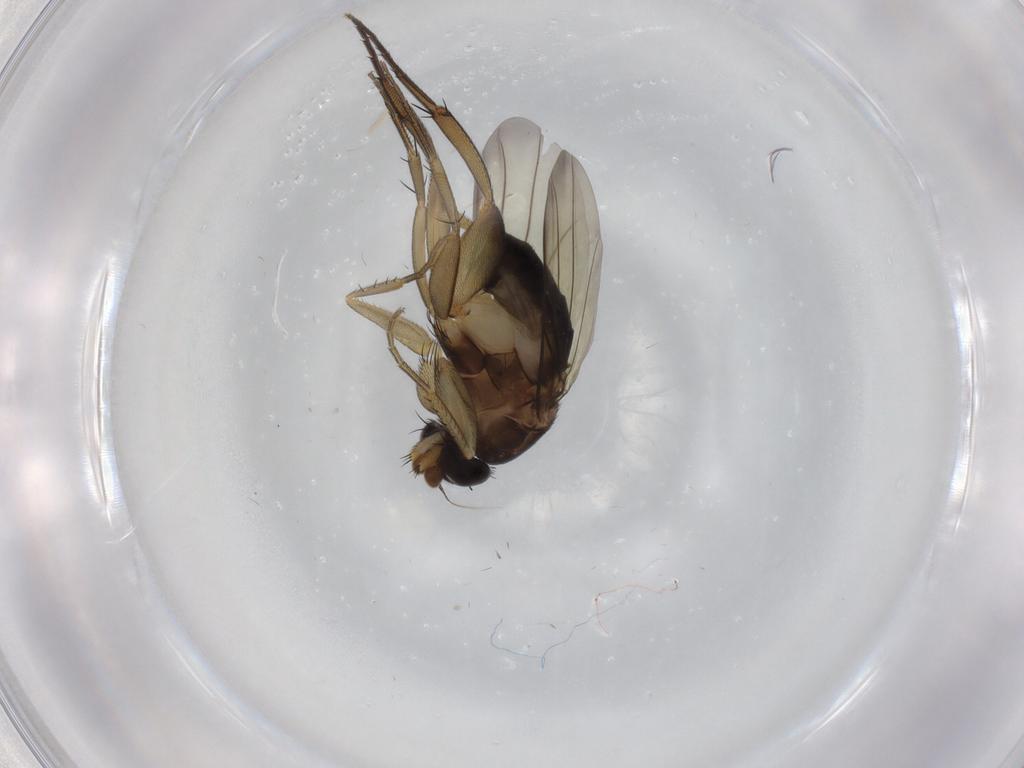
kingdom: Animalia
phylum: Arthropoda
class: Insecta
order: Diptera
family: Phoridae
